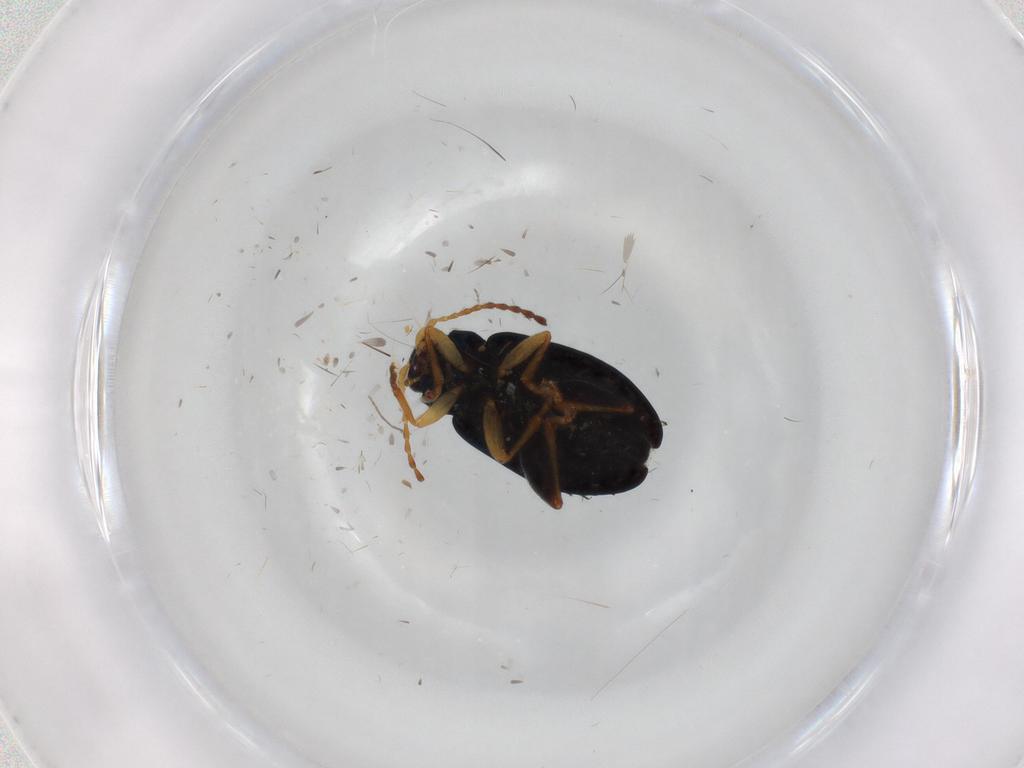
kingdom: Animalia
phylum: Arthropoda
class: Insecta
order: Coleoptera
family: Chrysomelidae
